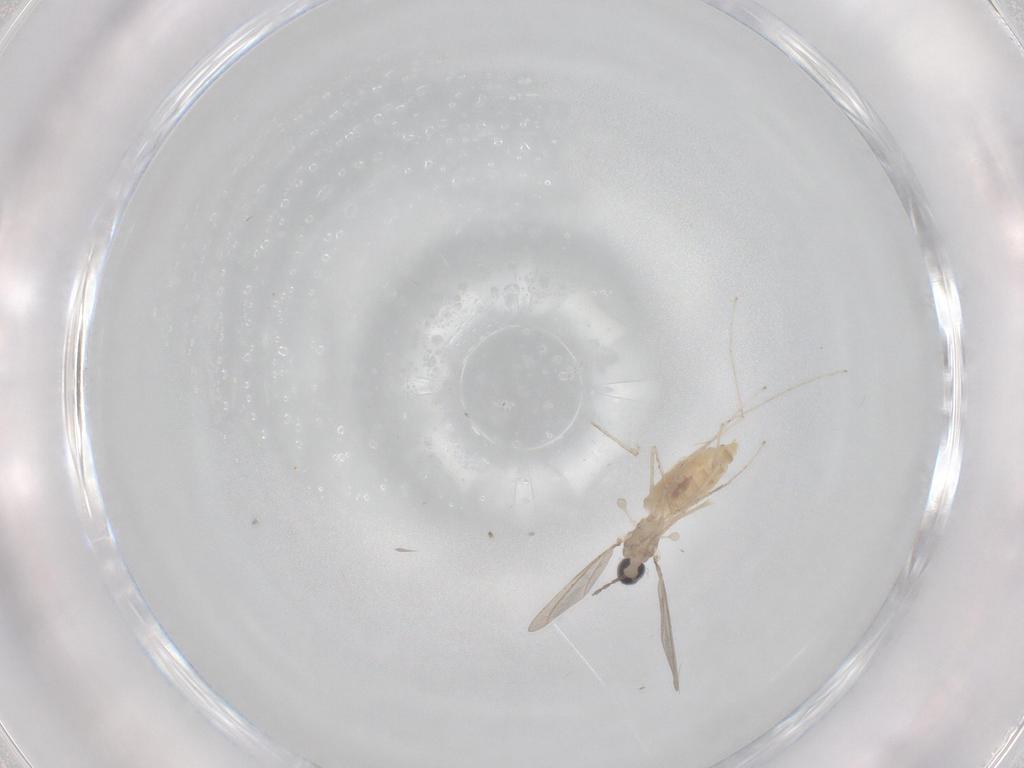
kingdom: Animalia
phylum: Arthropoda
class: Insecta
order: Diptera
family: Ceratopogonidae
